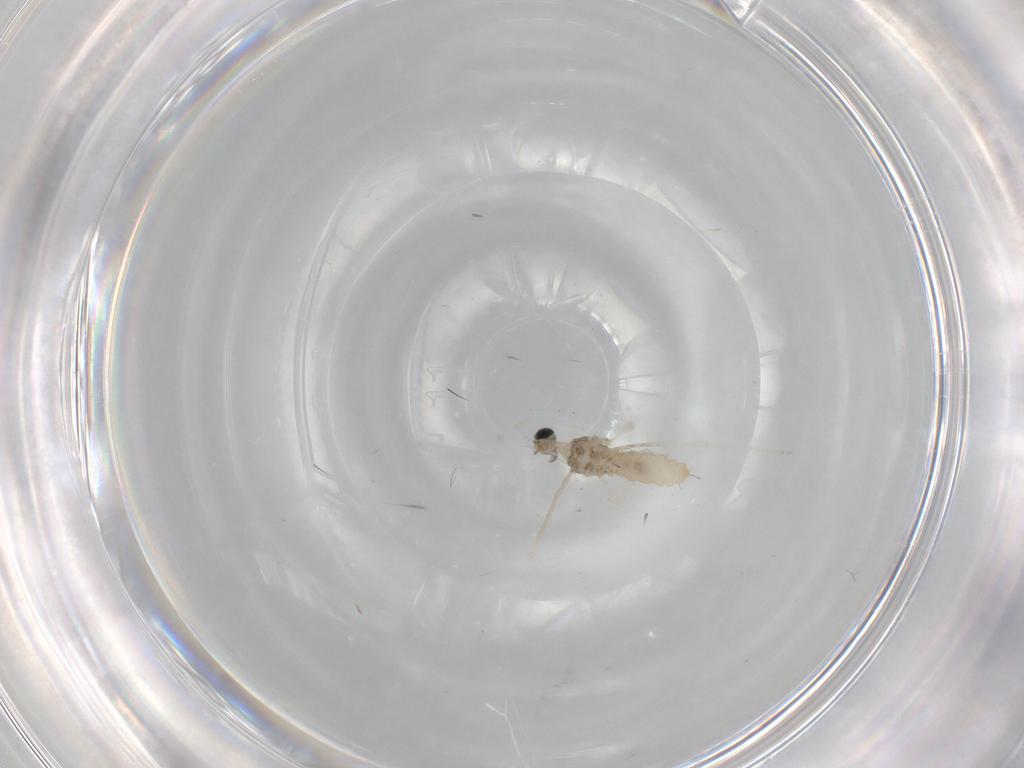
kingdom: Animalia
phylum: Arthropoda
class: Insecta
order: Diptera
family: Cecidomyiidae
